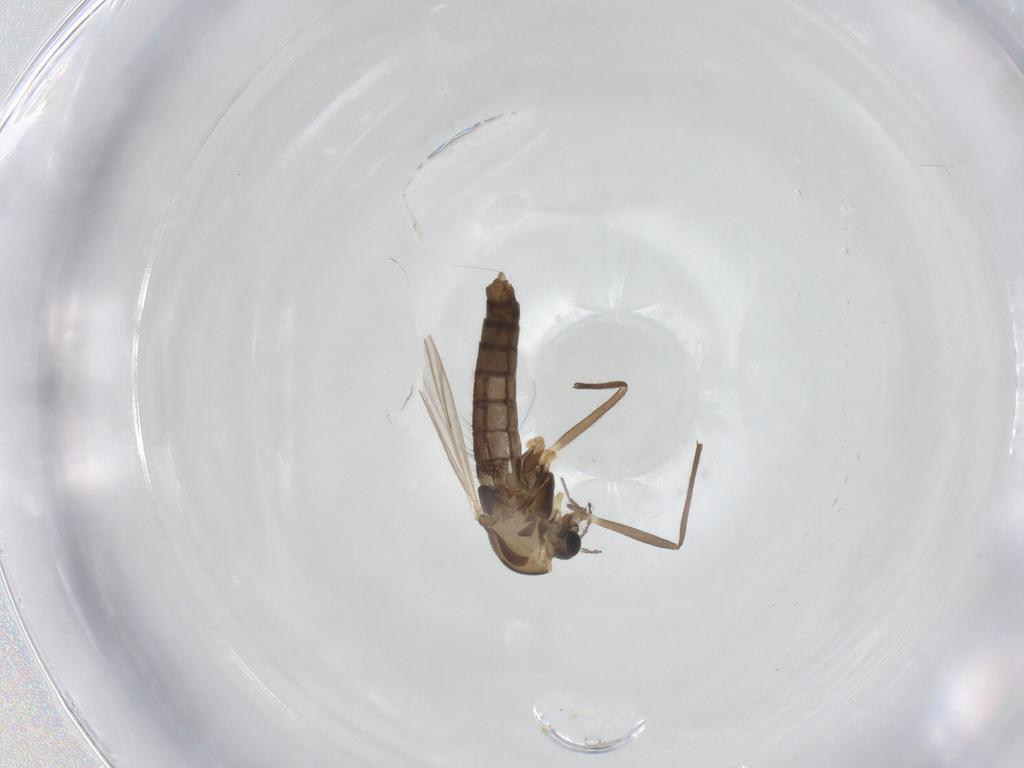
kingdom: Animalia
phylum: Arthropoda
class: Insecta
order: Diptera
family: Chironomidae
